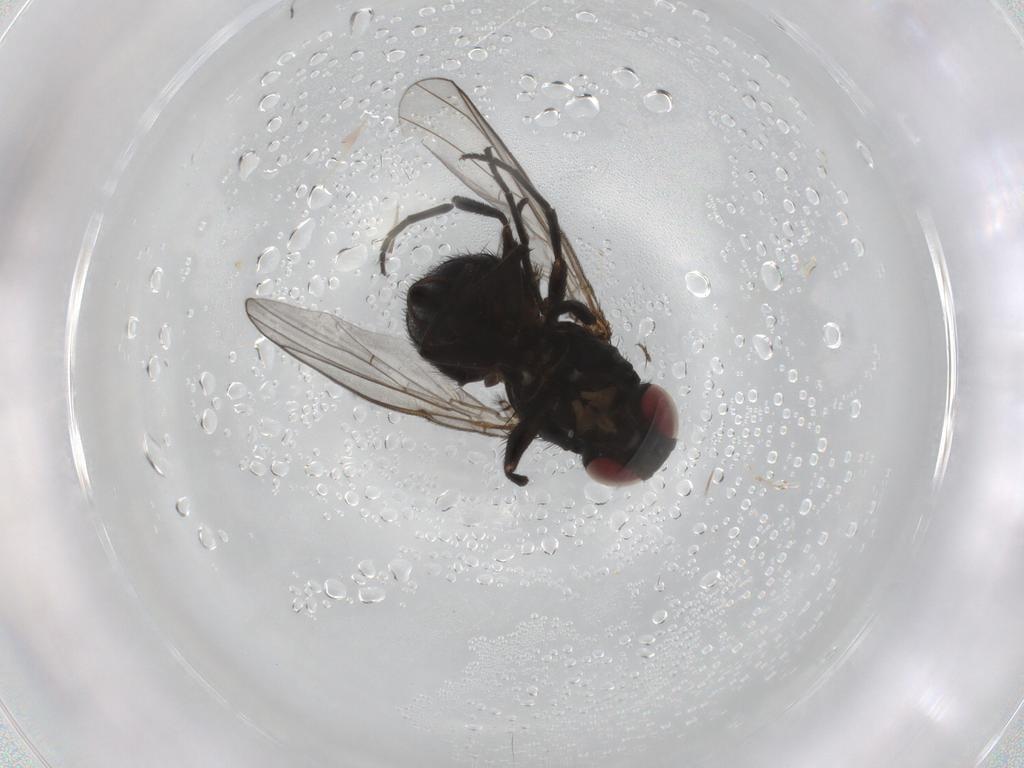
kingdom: Animalia
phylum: Arthropoda
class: Insecta
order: Diptera
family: Agromyzidae
